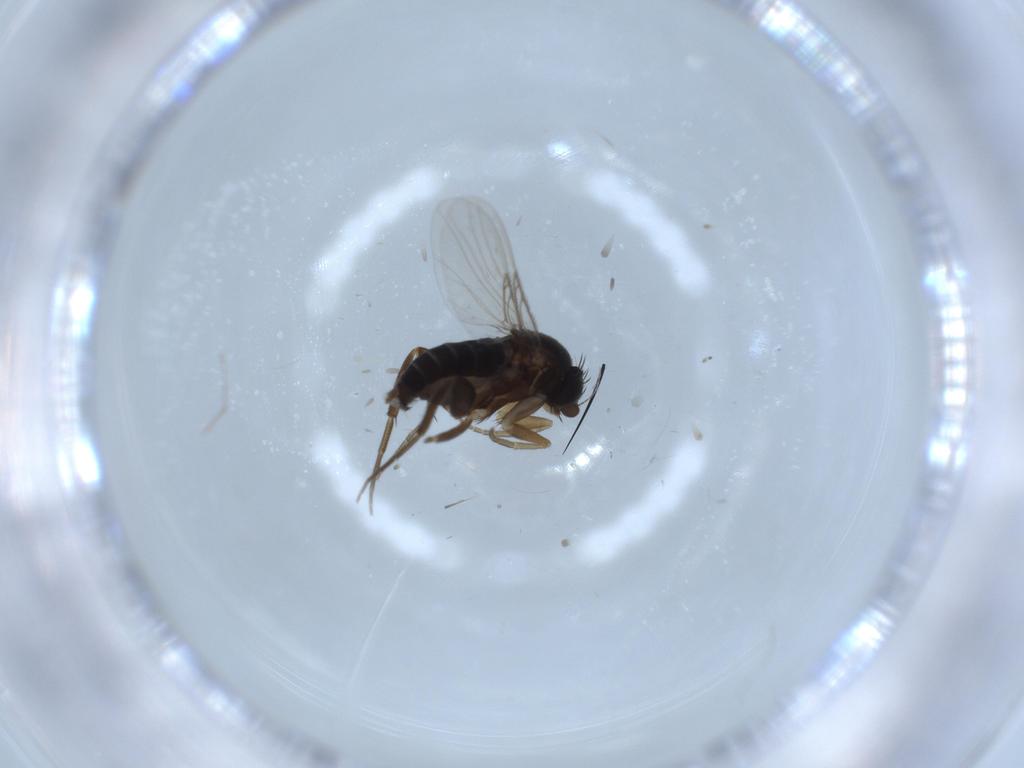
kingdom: Animalia
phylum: Arthropoda
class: Insecta
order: Diptera
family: Phoridae
